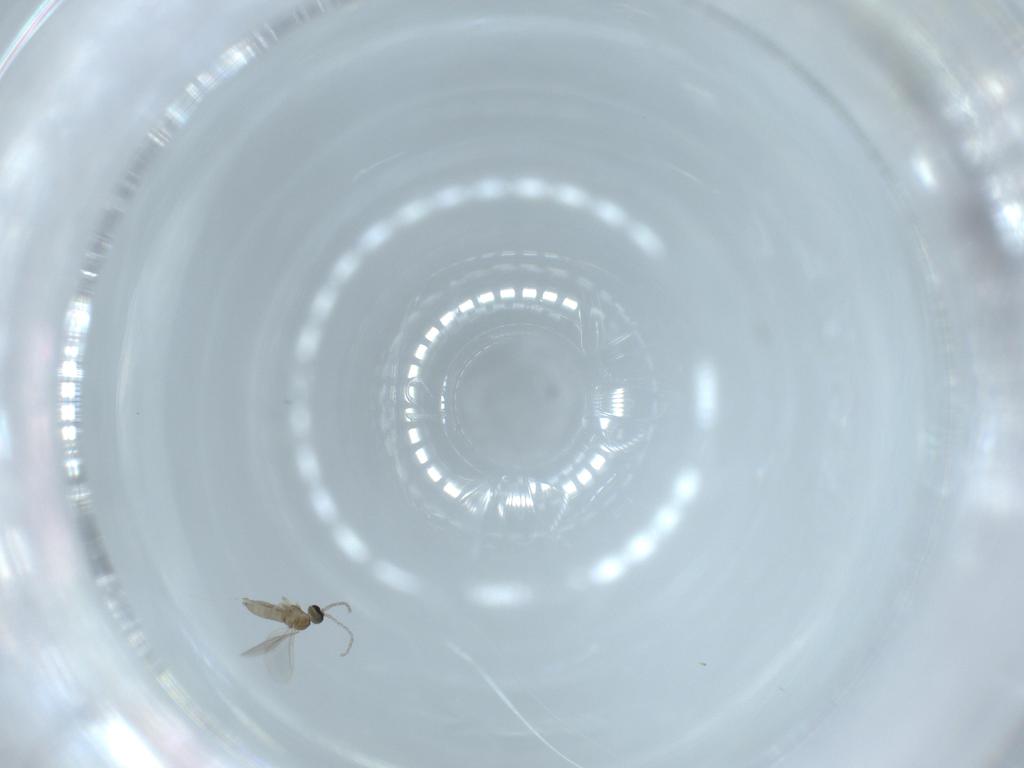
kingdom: Animalia
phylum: Arthropoda
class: Insecta
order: Diptera
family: Cecidomyiidae
